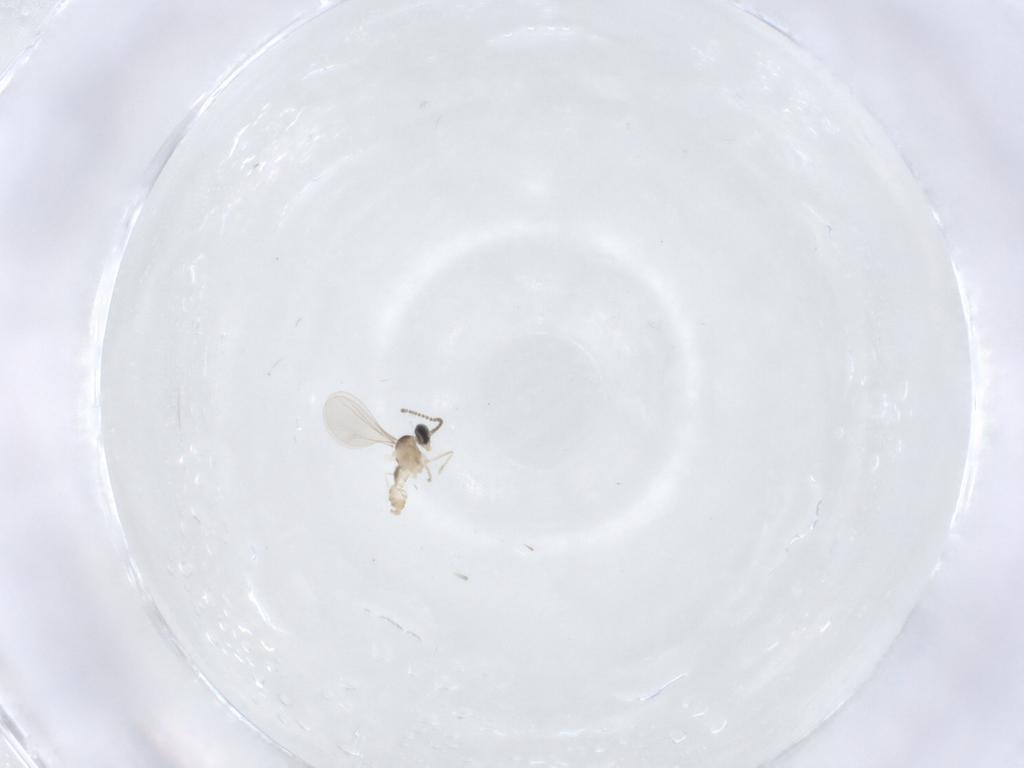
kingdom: Animalia
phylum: Arthropoda
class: Insecta
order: Diptera
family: Cecidomyiidae
